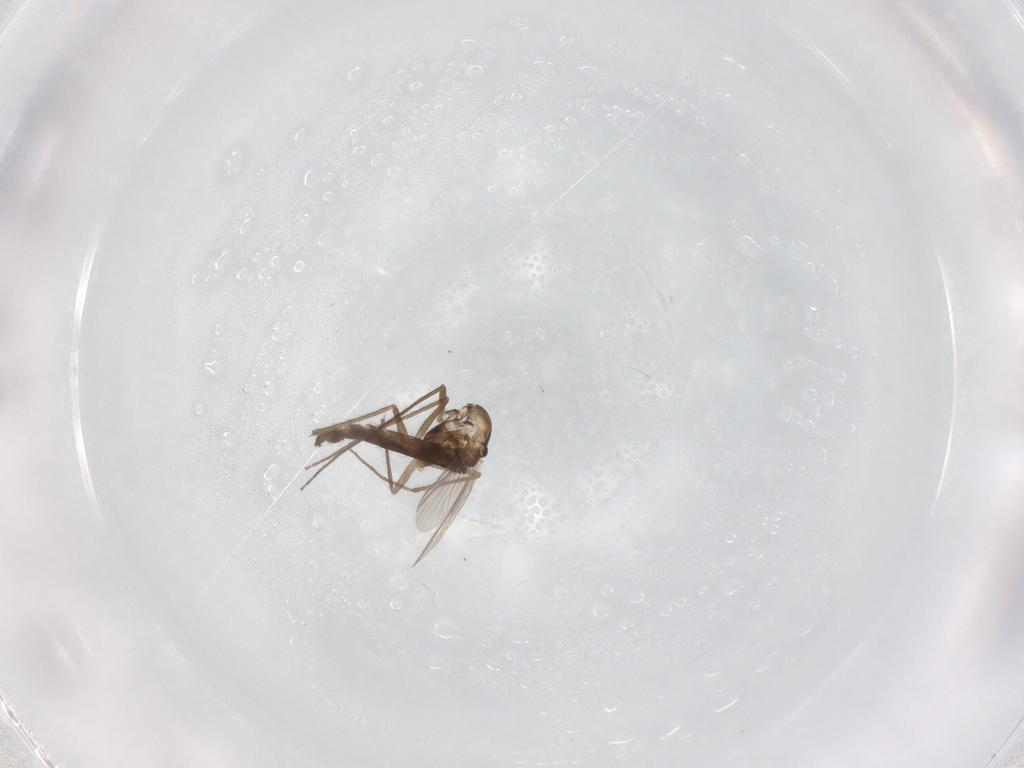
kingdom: Animalia
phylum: Arthropoda
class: Insecta
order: Diptera
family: Chironomidae
